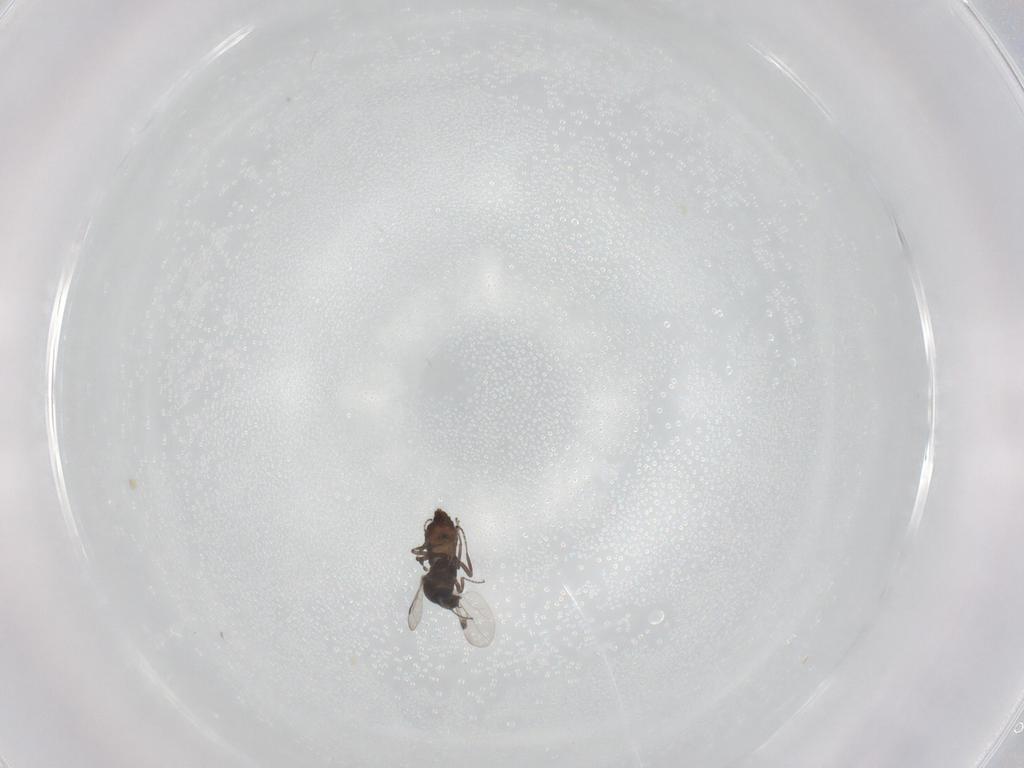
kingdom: Animalia
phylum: Arthropoda
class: Insecta
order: Diptera
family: Ceratopogonidae
